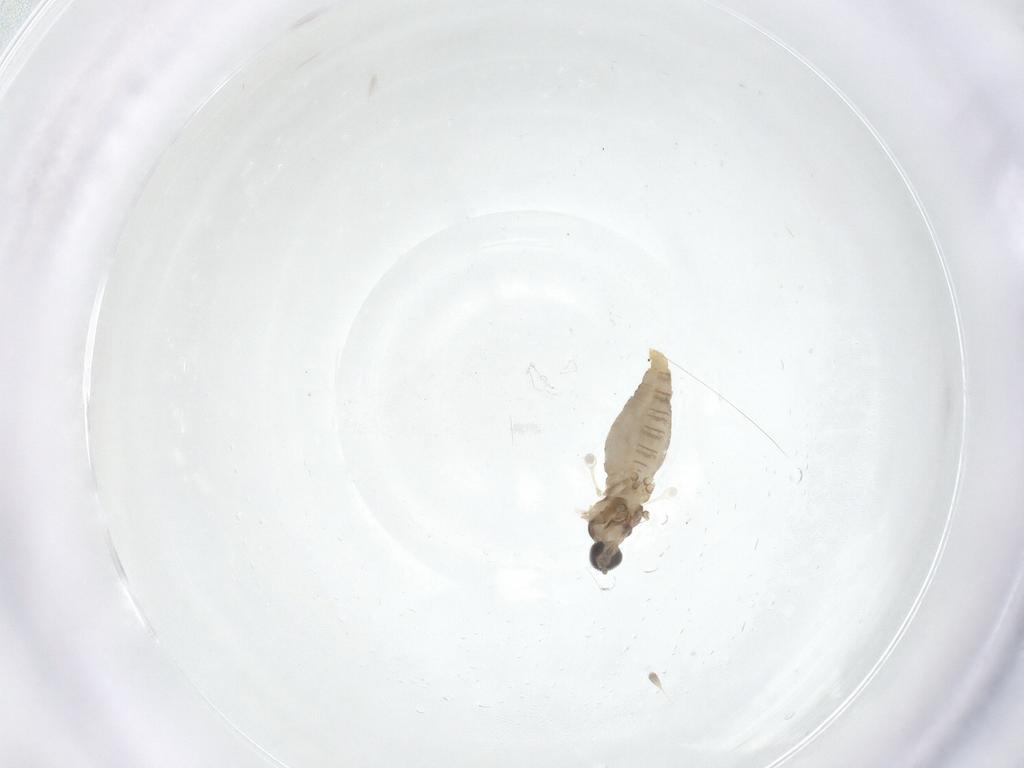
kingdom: Animalia
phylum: Arthropoda
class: Insecta
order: Diptera
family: Cecidomyiidae
